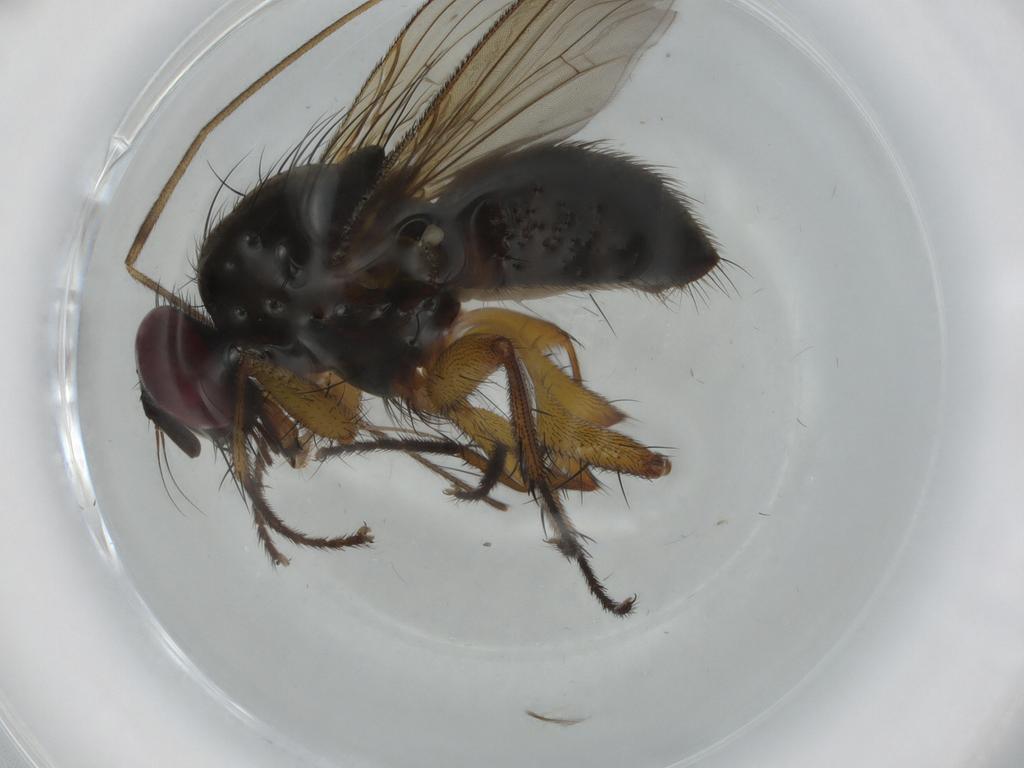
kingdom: Animalia
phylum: Arthropoda
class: Insecta
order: Diptera
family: Muscidae
